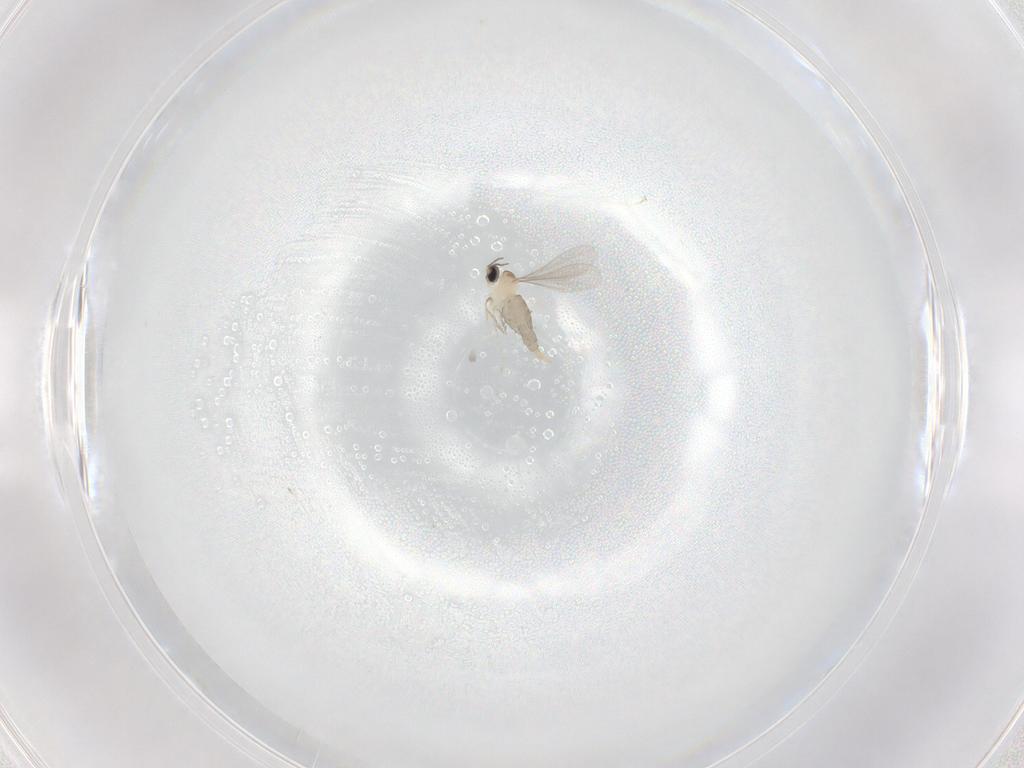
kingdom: Animalia
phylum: Arthropoda
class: Insecta
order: Diptera
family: Cecidomyiidae
